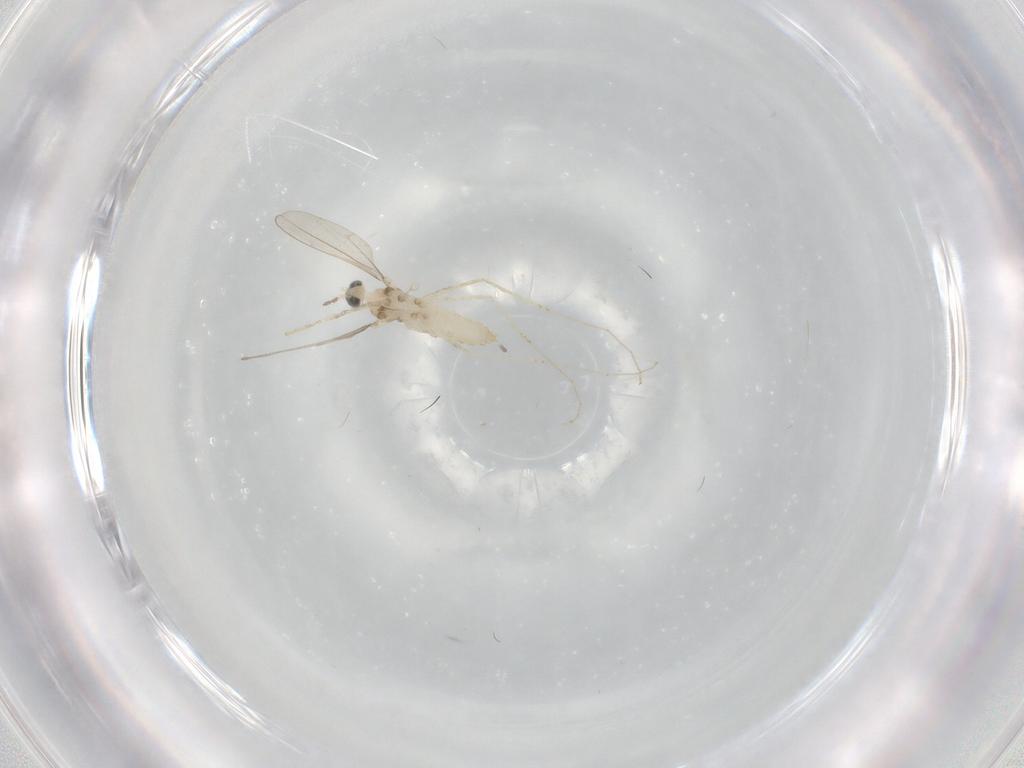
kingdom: Animalia
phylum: Arthropoda
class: Insecta
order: Diptera
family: Cecidomyiidae
